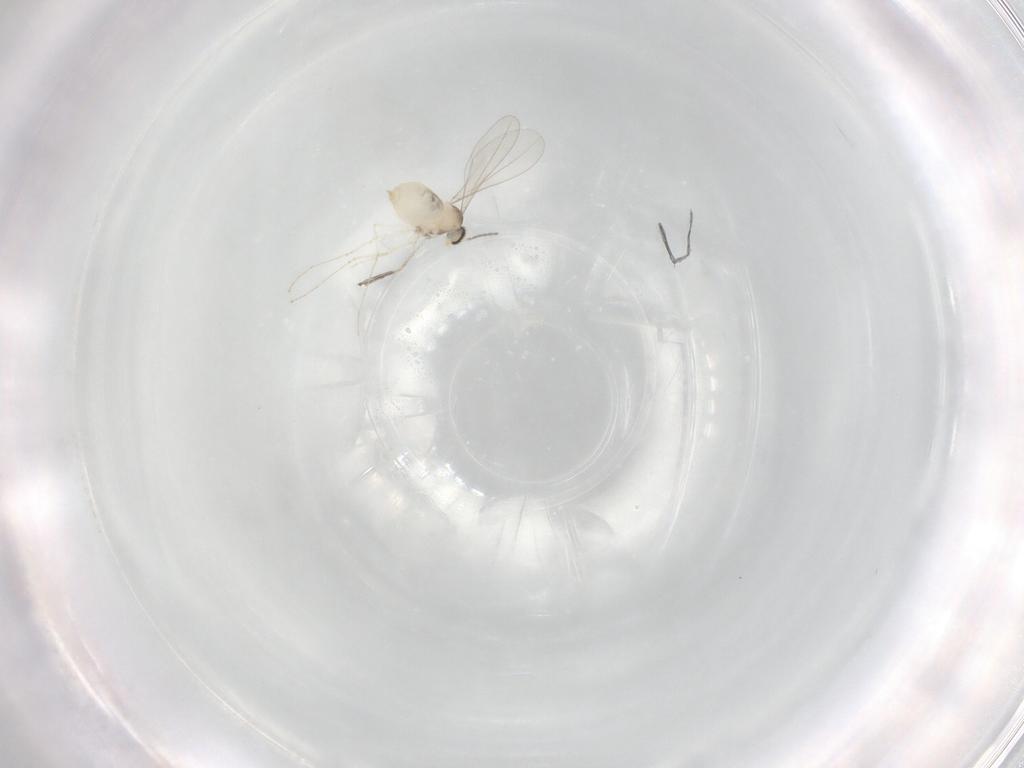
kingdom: Animalia
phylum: Arthropoda
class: Insecta
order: Diptera
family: Cecidomyiidae
